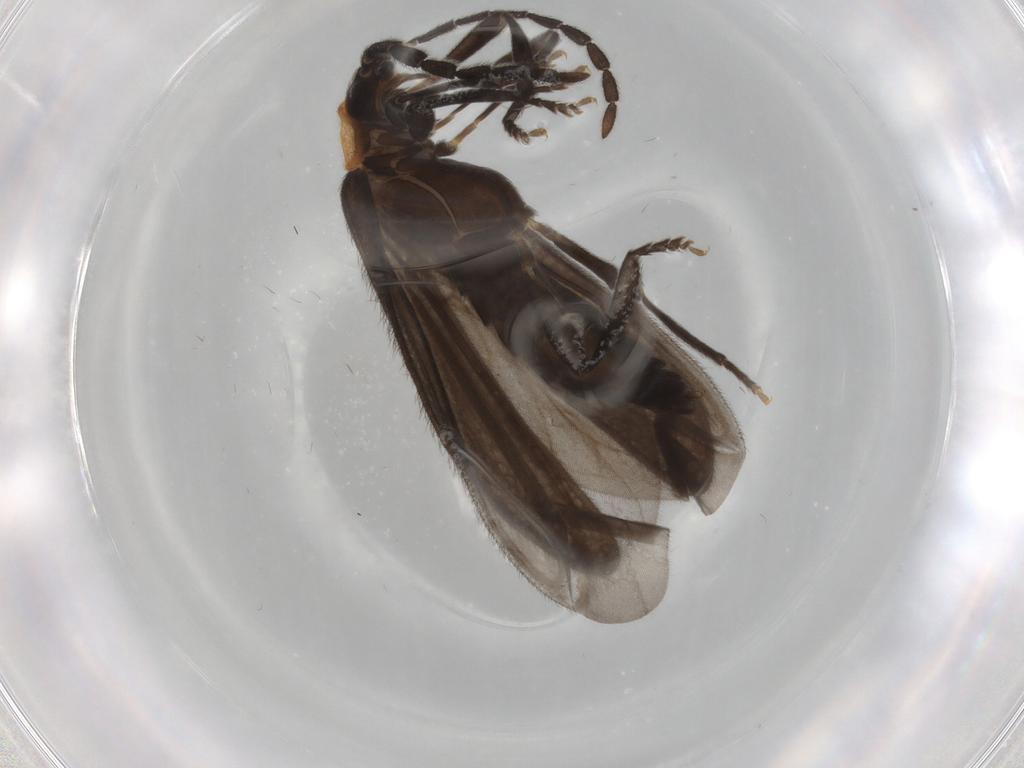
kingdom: Animalia
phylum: Arthropoda
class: Insecta
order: Coleoptera
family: Lycidae
